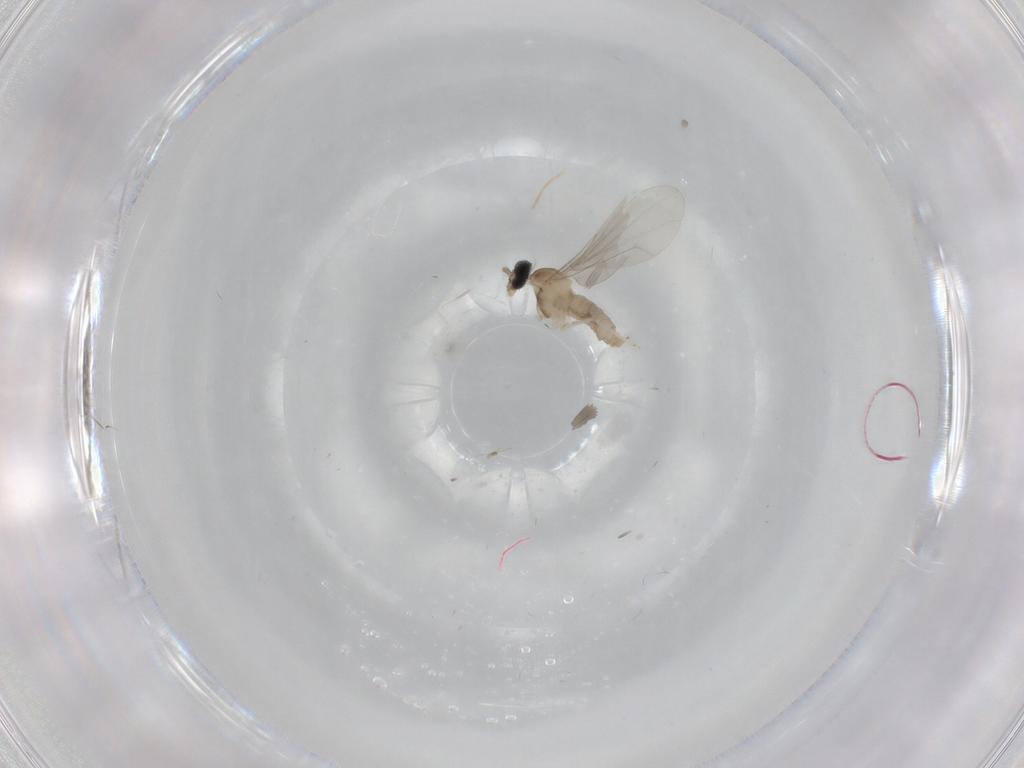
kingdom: Animalia
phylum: Arthropoda
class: Insecta
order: Diptera
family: Cecidomyiidae
